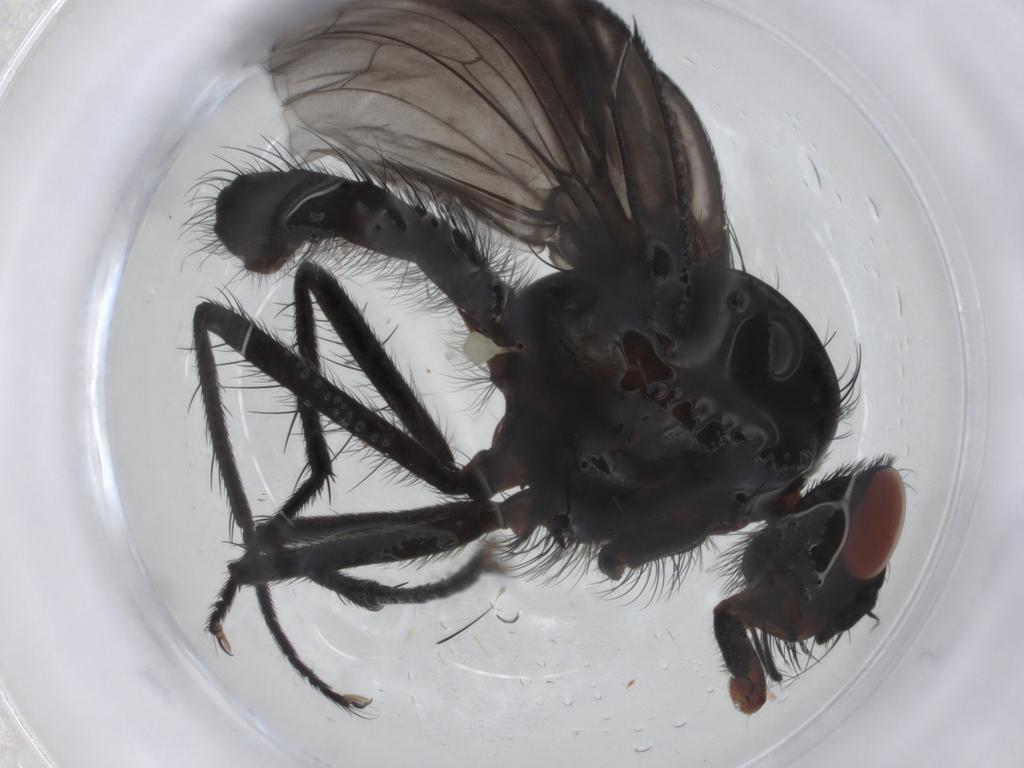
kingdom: Animalia
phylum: Arthropoda
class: Insecta
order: Diptera
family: Anthomyiidae
